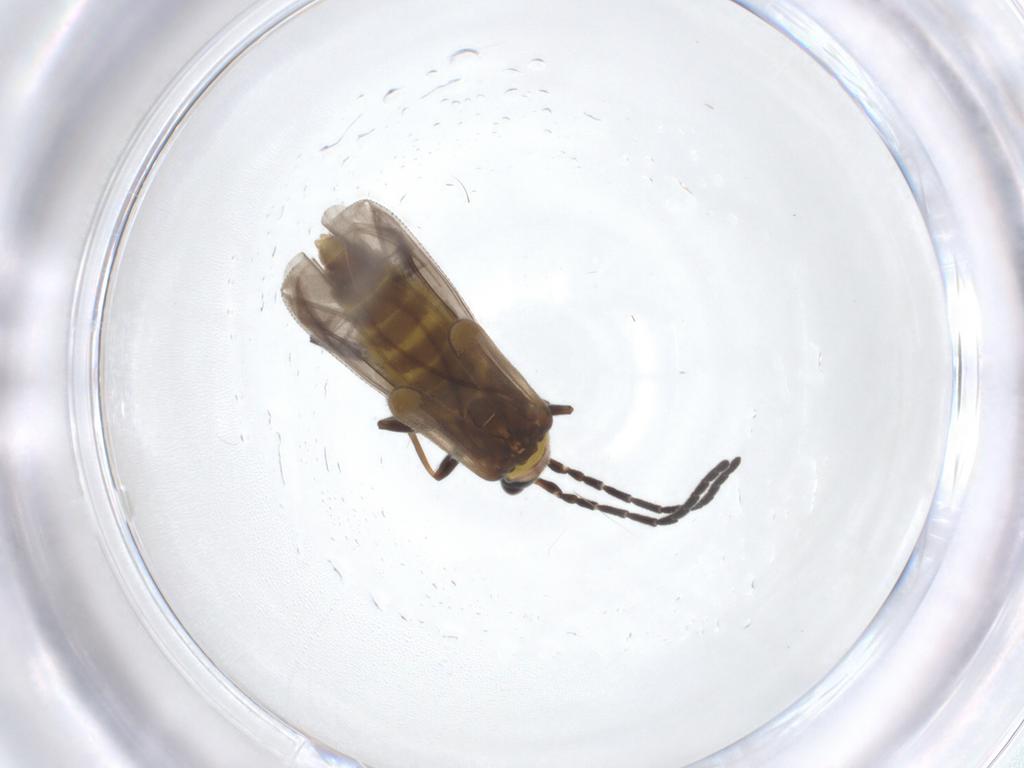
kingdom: Animalia
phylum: Arthropoda
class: Insecta
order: Coleoptera
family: Cantharidae
